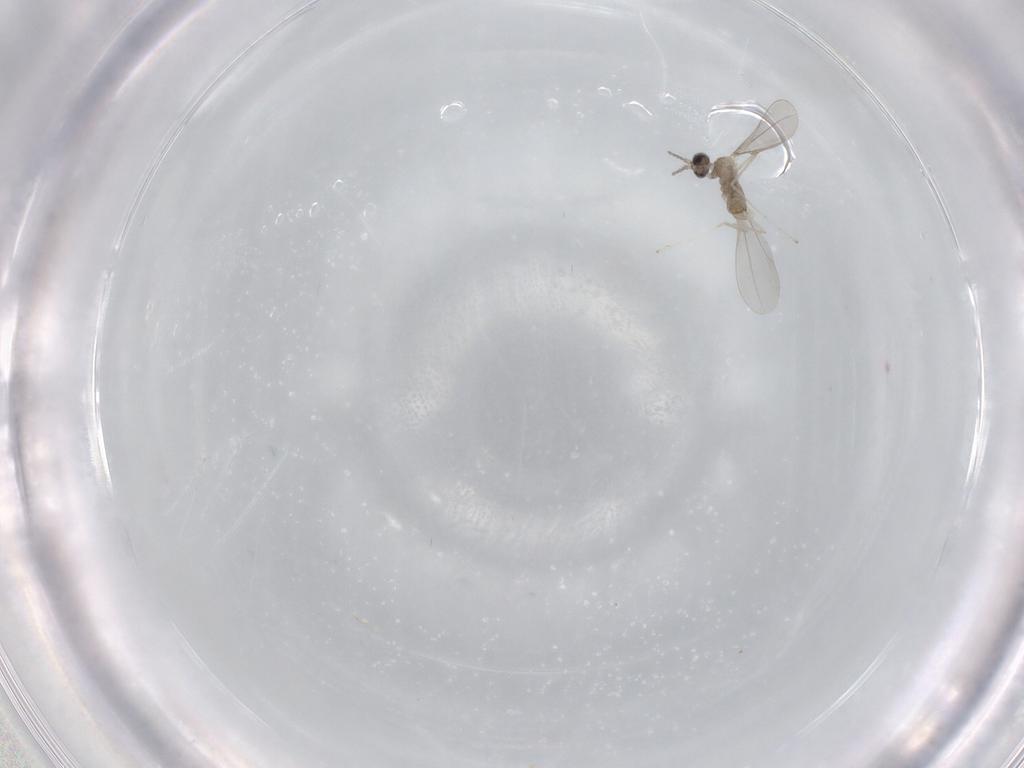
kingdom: Animalia
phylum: Arthropoda
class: Insecta
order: Diptera
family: Cecidomyiidae
